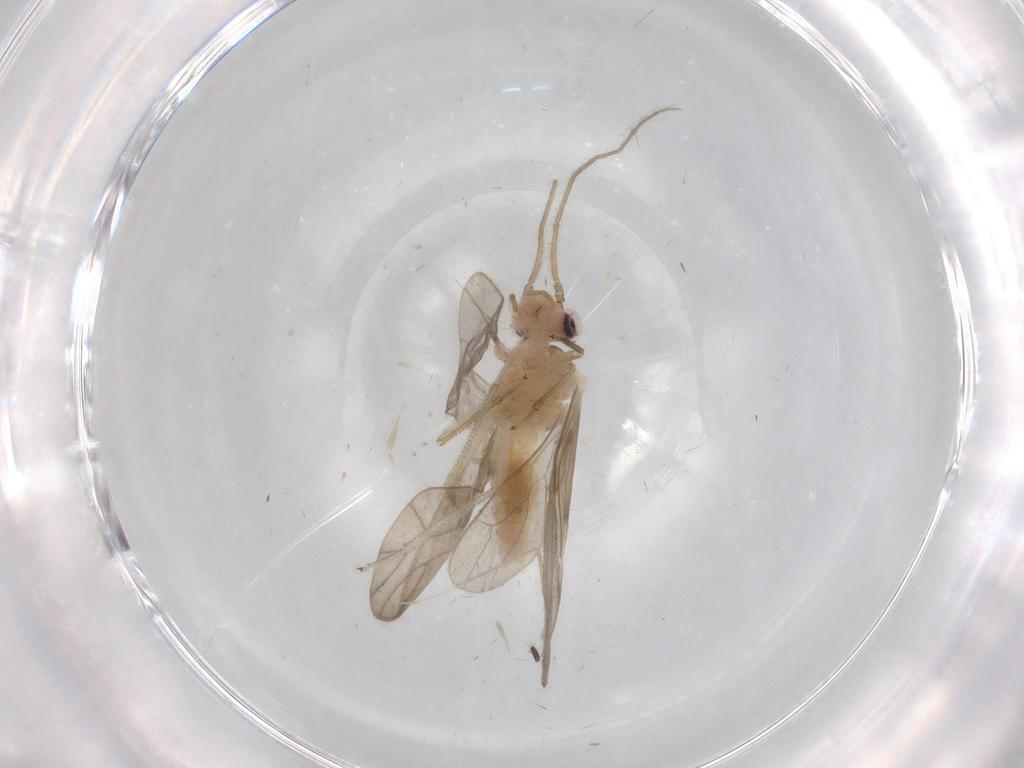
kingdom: Animalia
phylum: Arthropoda
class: Insecta
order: Psocodea
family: Caeciliusidae
